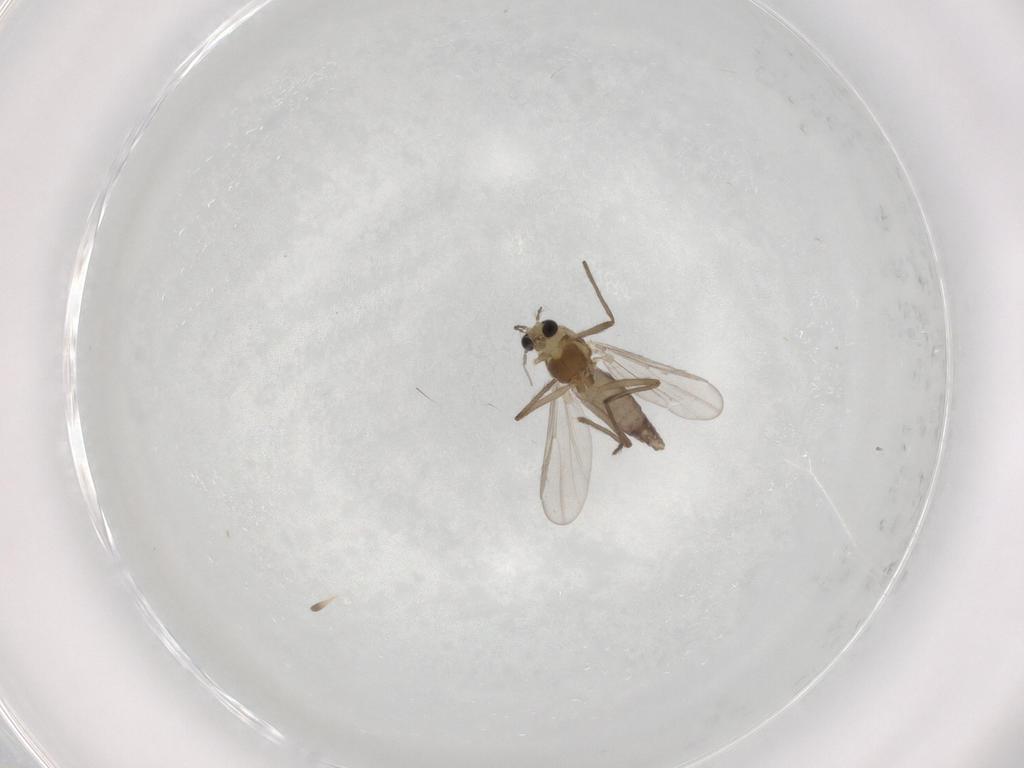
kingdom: Animalia
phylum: Arthropoda
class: Insecta
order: Diptera
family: Chironomidae
